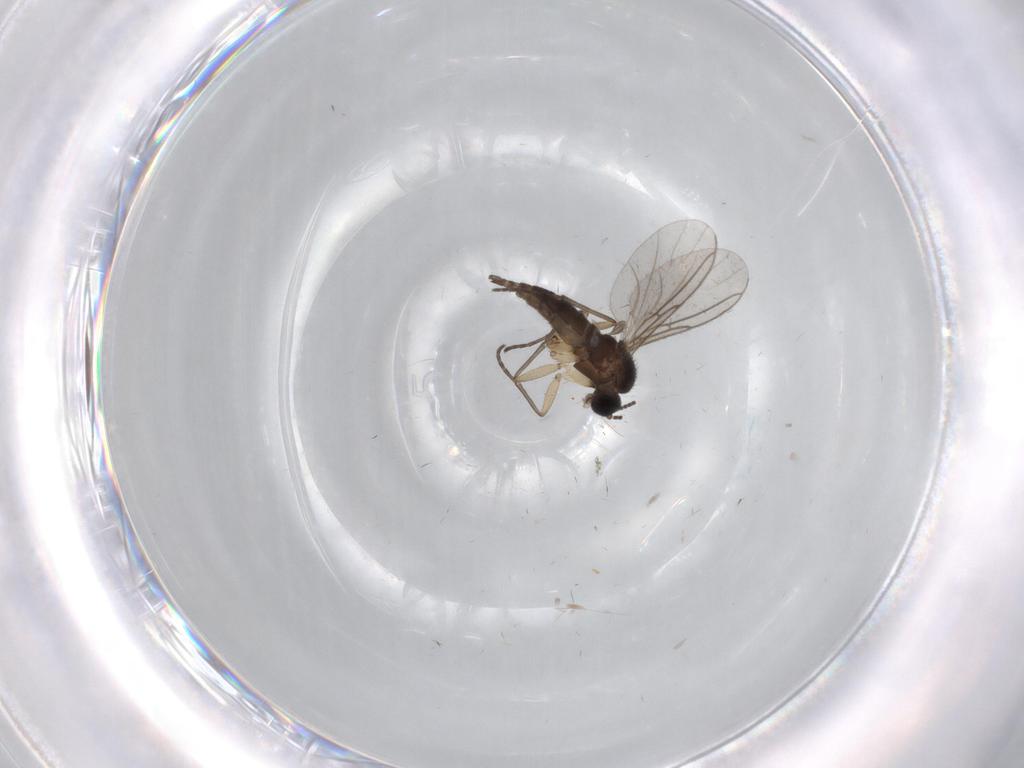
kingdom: Animalia
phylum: Arthropoda
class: Insecta
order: Diptera
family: Sciaridae
